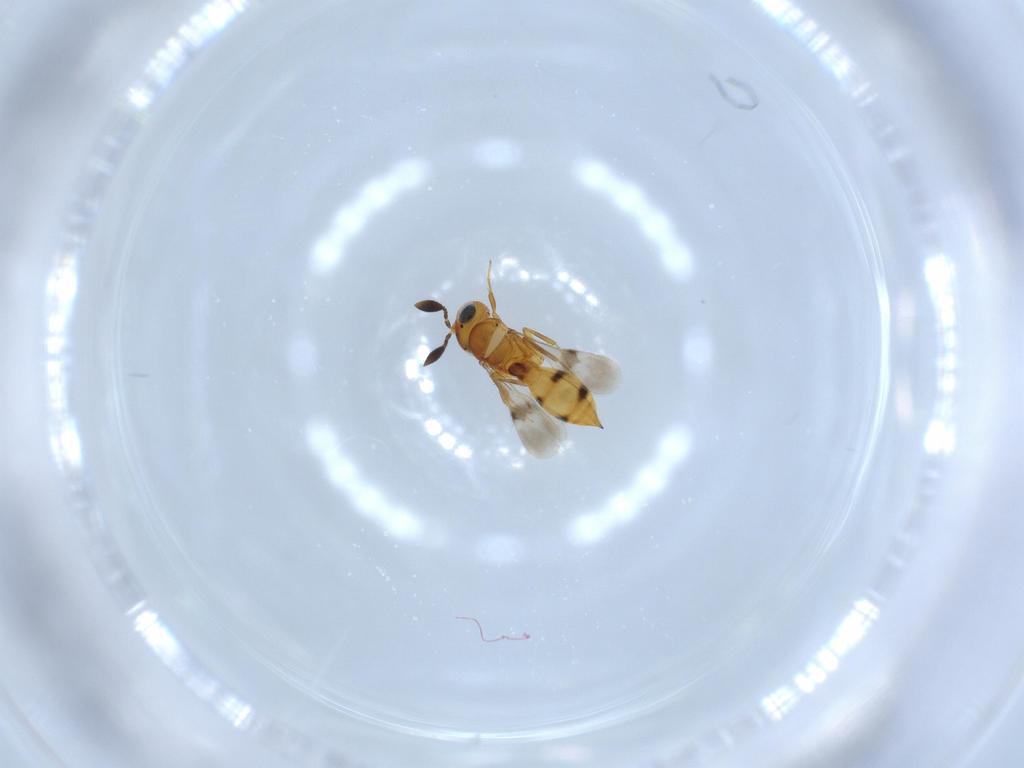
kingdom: Animalia
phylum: Arthropoda
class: Insecta
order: Hymenoptera
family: Scelionidae
